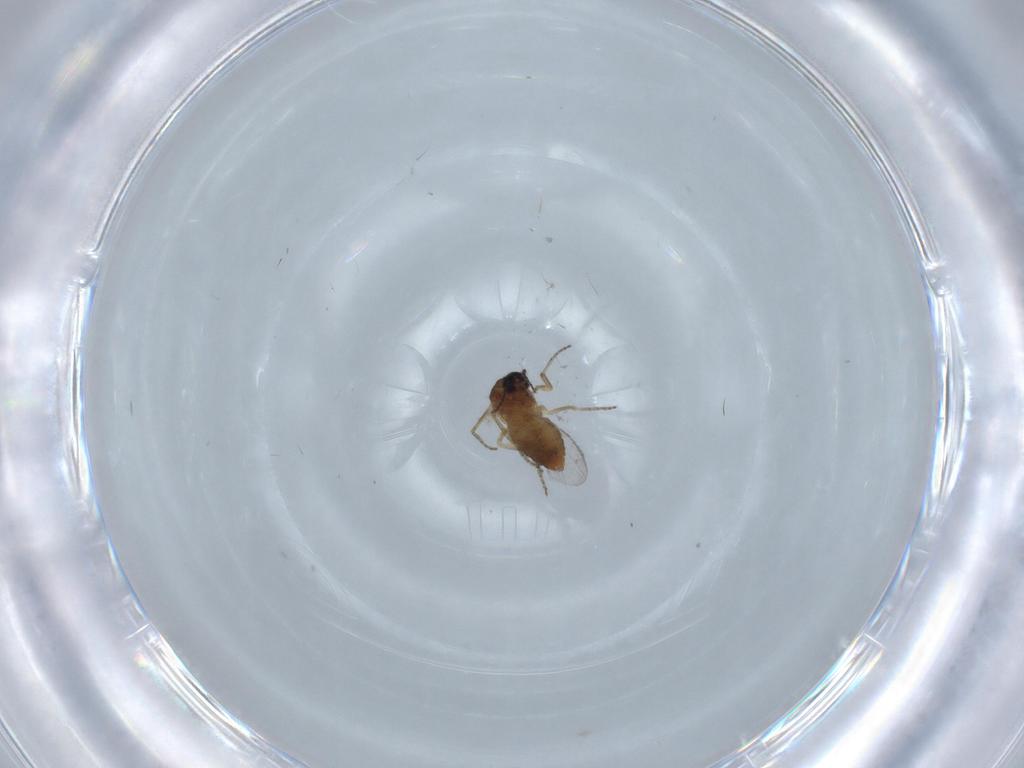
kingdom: Animalia
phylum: Arthropoda
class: Insecta
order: Diptera
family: Ceratopogonidae
